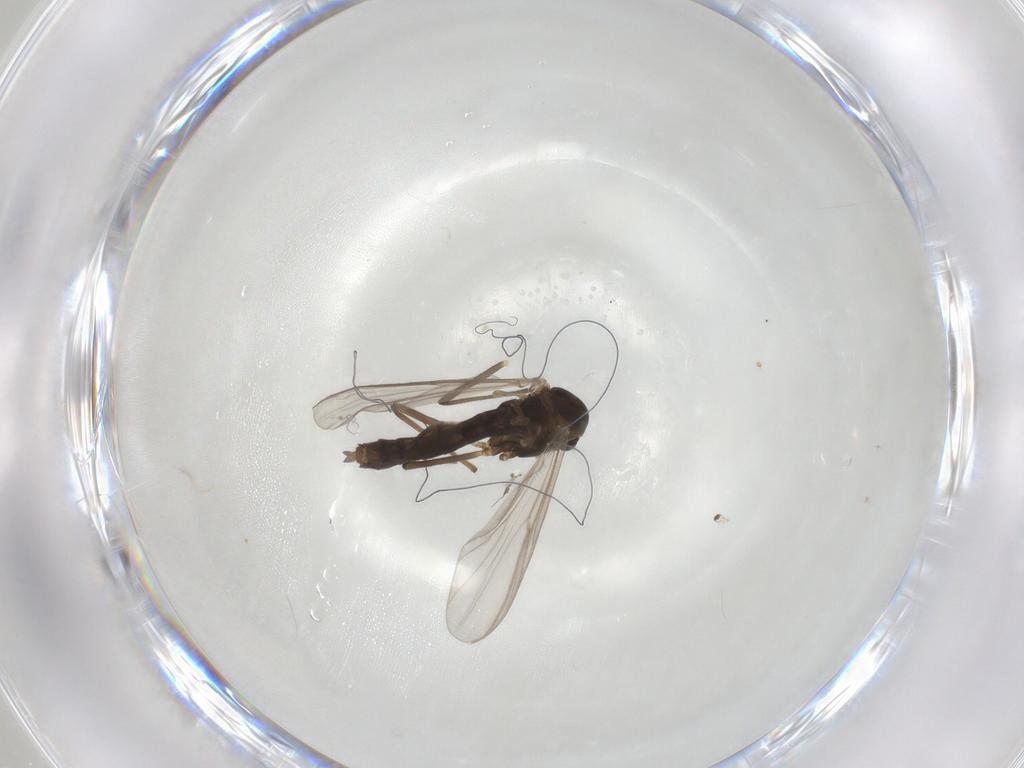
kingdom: Animalia
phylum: Arthropoda
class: Insecta
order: Diptera
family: Chironomidae
